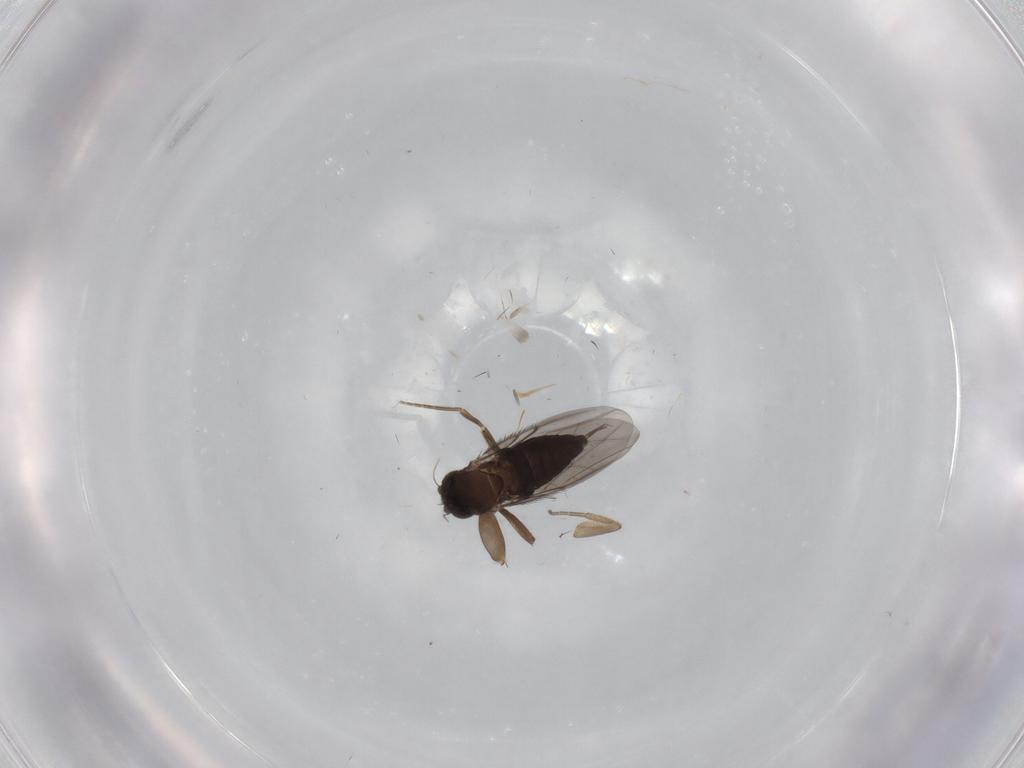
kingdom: Animalia
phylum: Arthropoda
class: Insecta
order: Diptera
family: Phoridae
